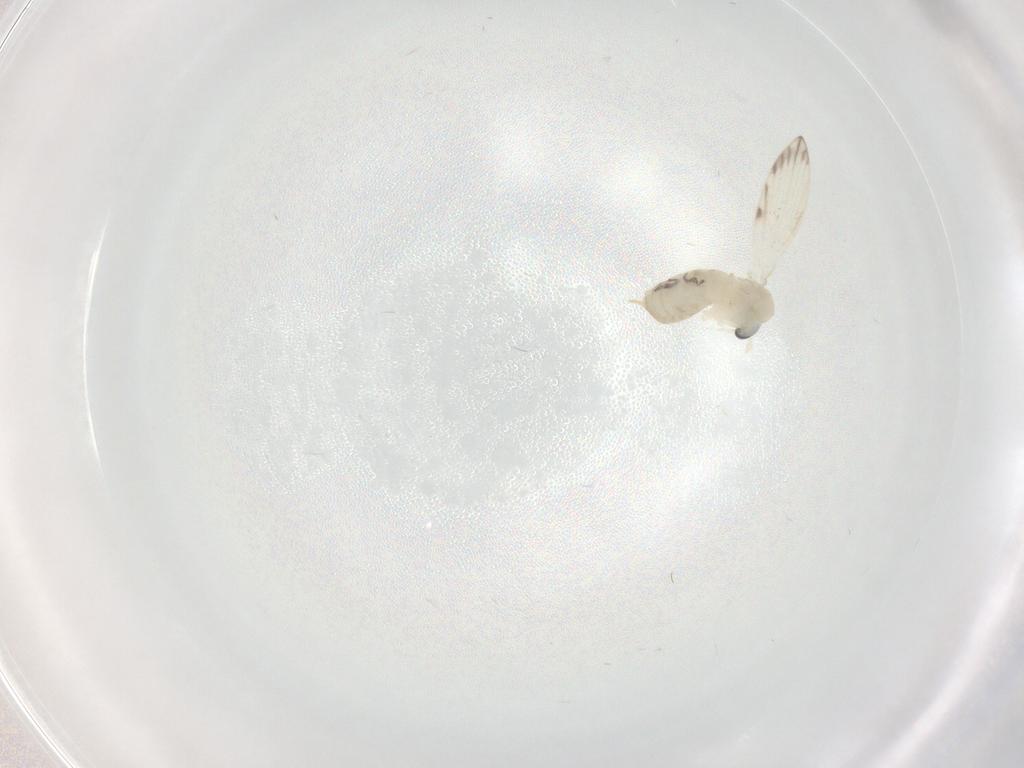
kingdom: Animalia
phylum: Arthropoda
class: Insecta
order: Diptera
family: Psychodidae
